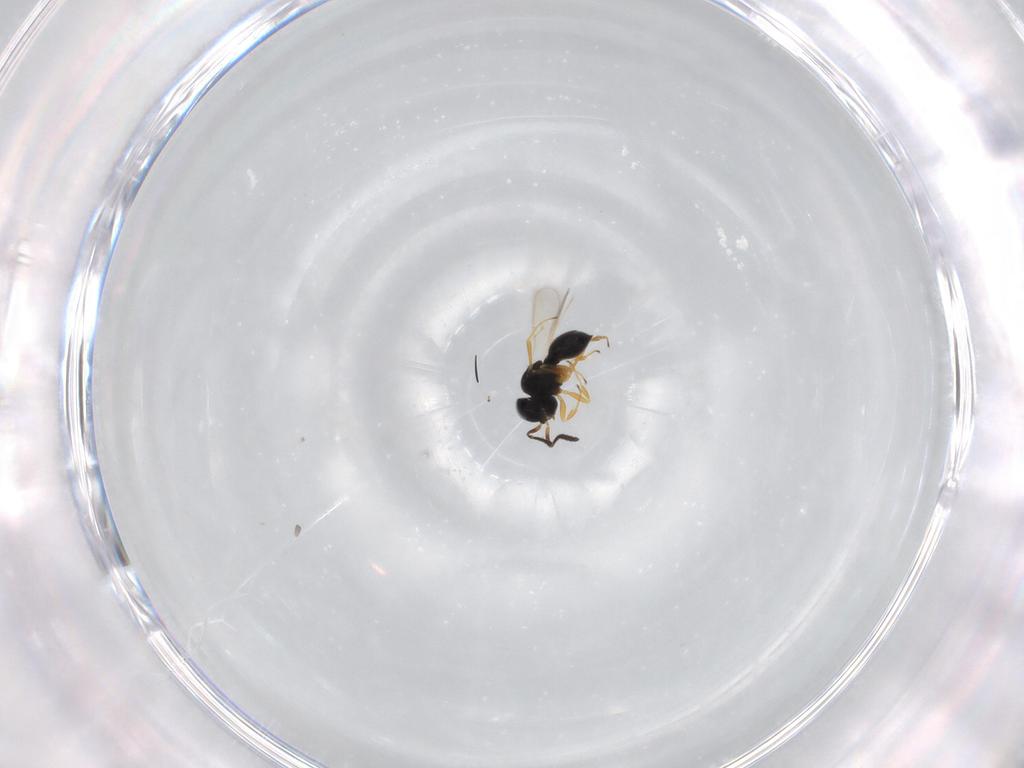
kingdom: Animalia
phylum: Arthropoda
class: Insecta
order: Hymenoptera
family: Scelionidae
